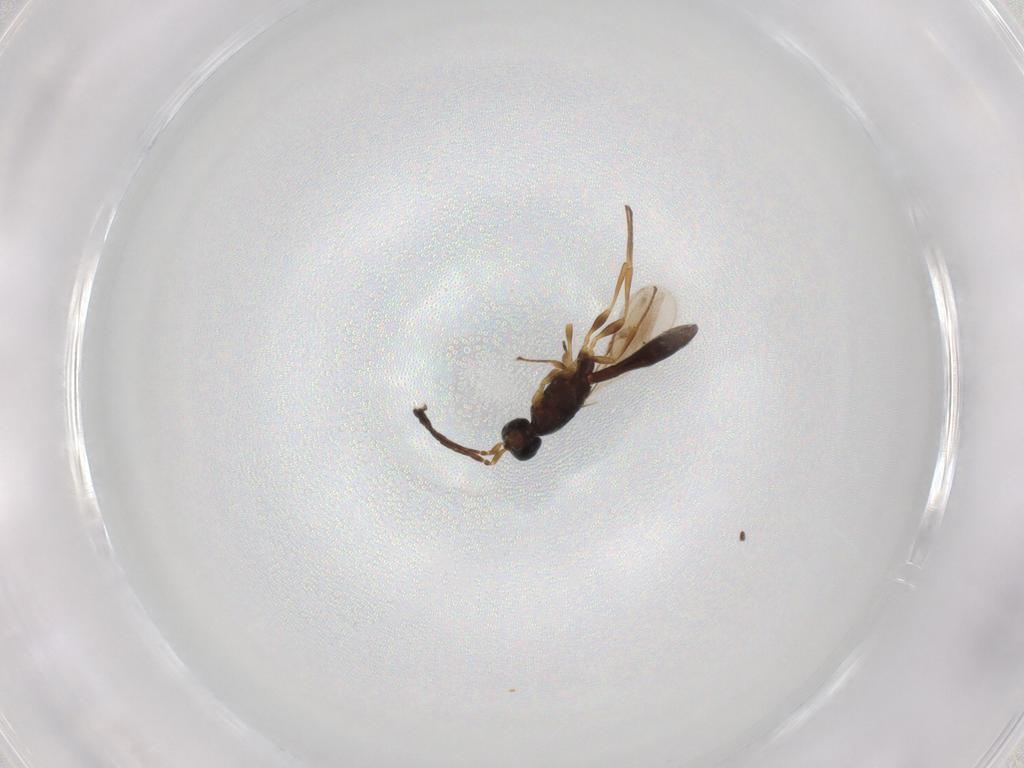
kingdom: Animalia
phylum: Arthropoda
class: Insecta
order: Hymenoptera
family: Scelionidae
